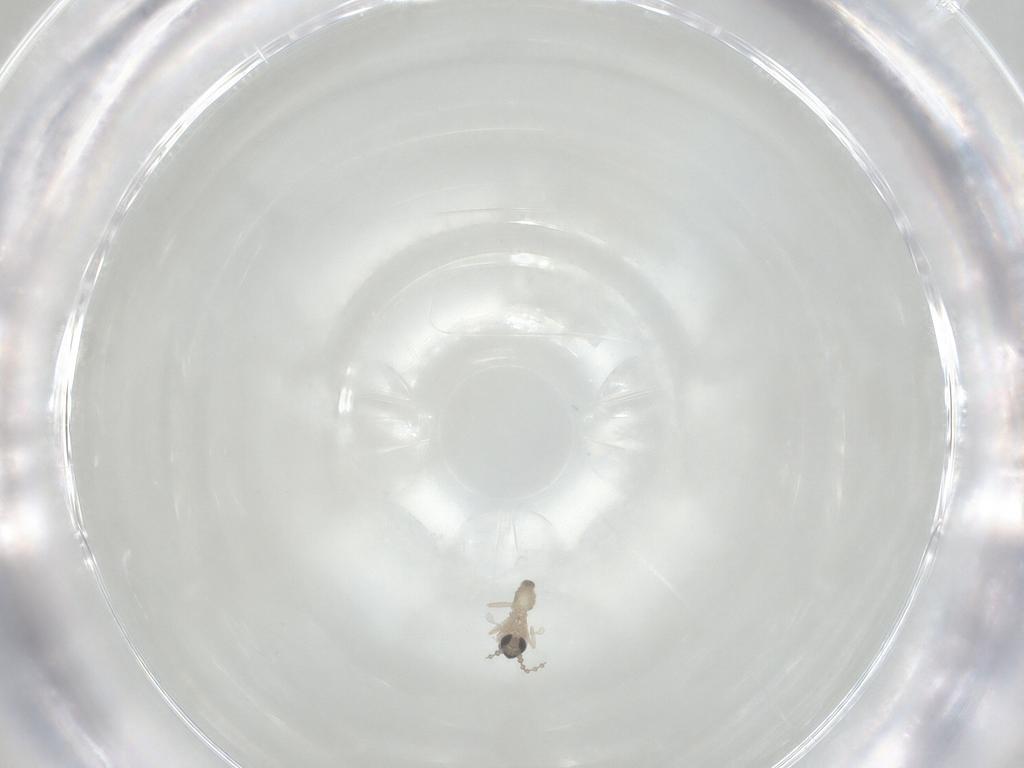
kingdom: Animalia
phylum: Arthropoda
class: Insecta
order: Diptera
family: Cecidomyiidae
